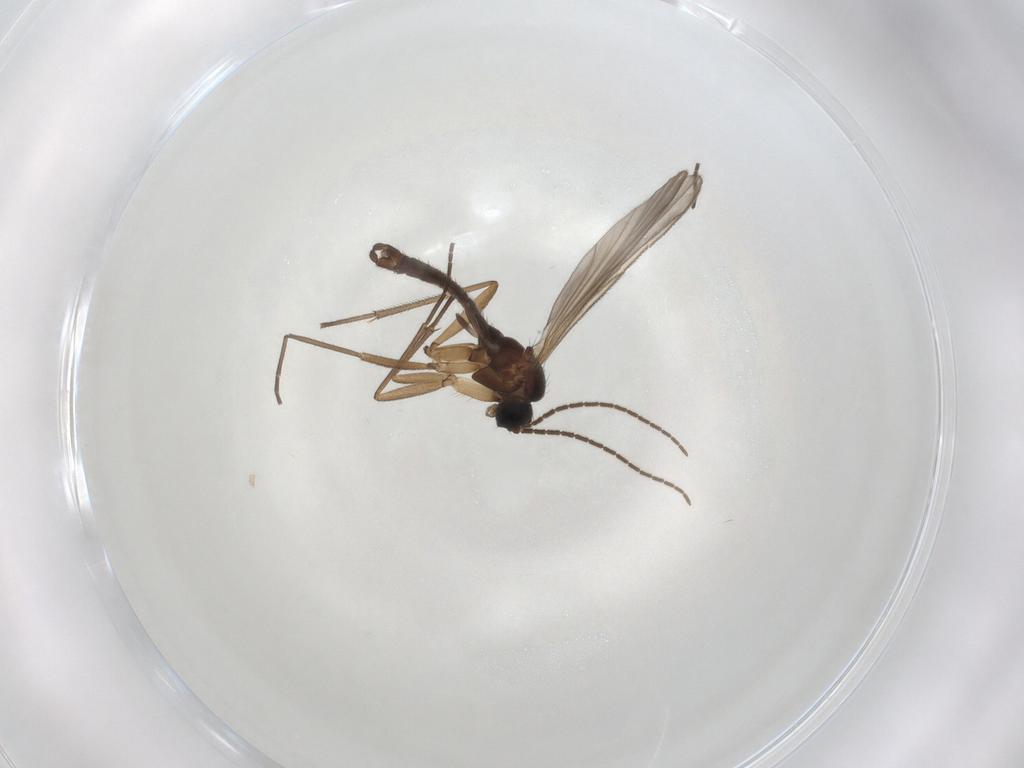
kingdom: Animalia
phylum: Arthropoda
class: Insecta
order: Diptera
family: Sciaridae
